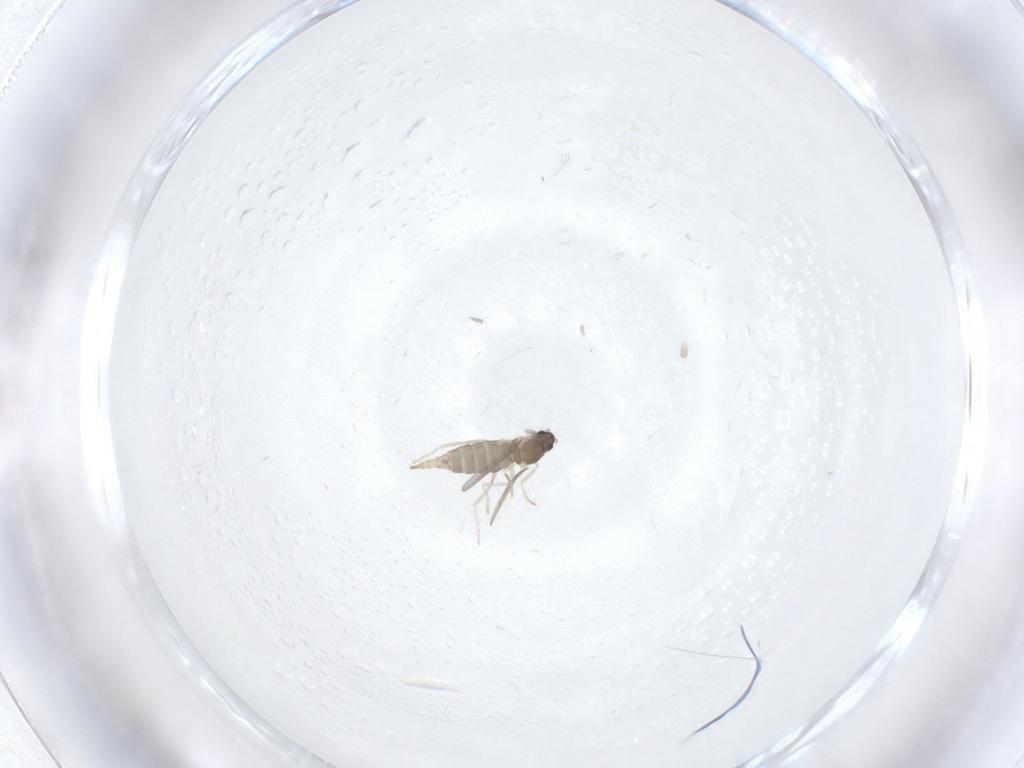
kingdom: Animalia
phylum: Arthropoda
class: Insecta
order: Diptera
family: Cecidomyiidae
